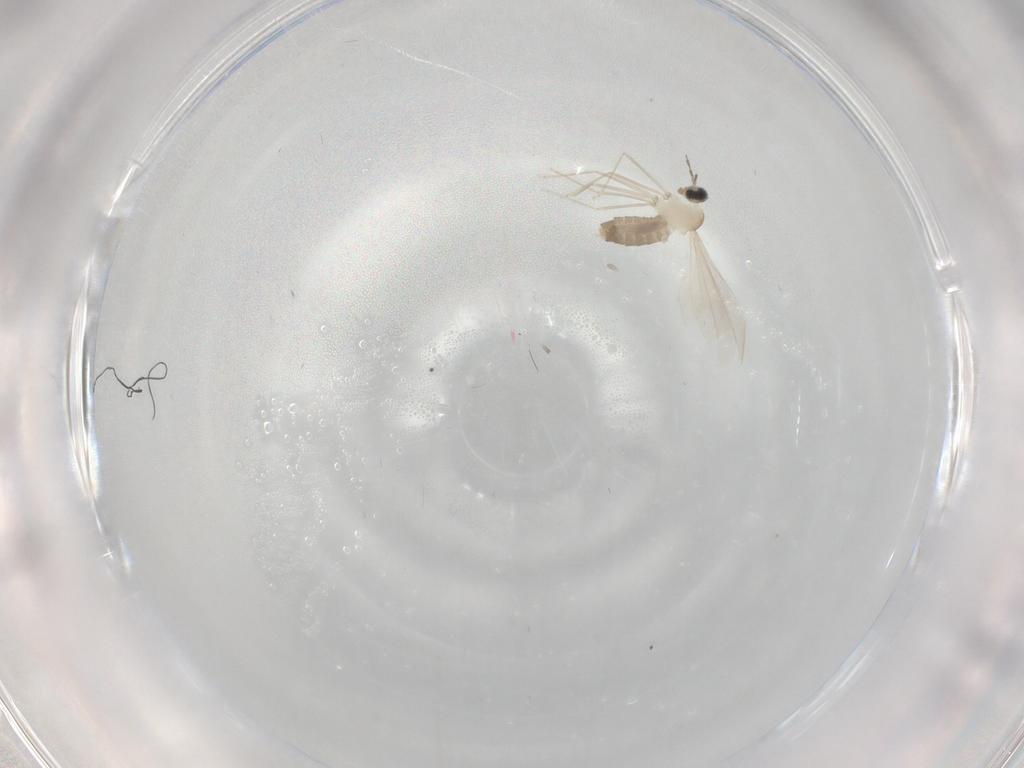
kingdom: Animalia
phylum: Arthropoda
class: Insecta
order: Diptera
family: Cecidomyiidae
